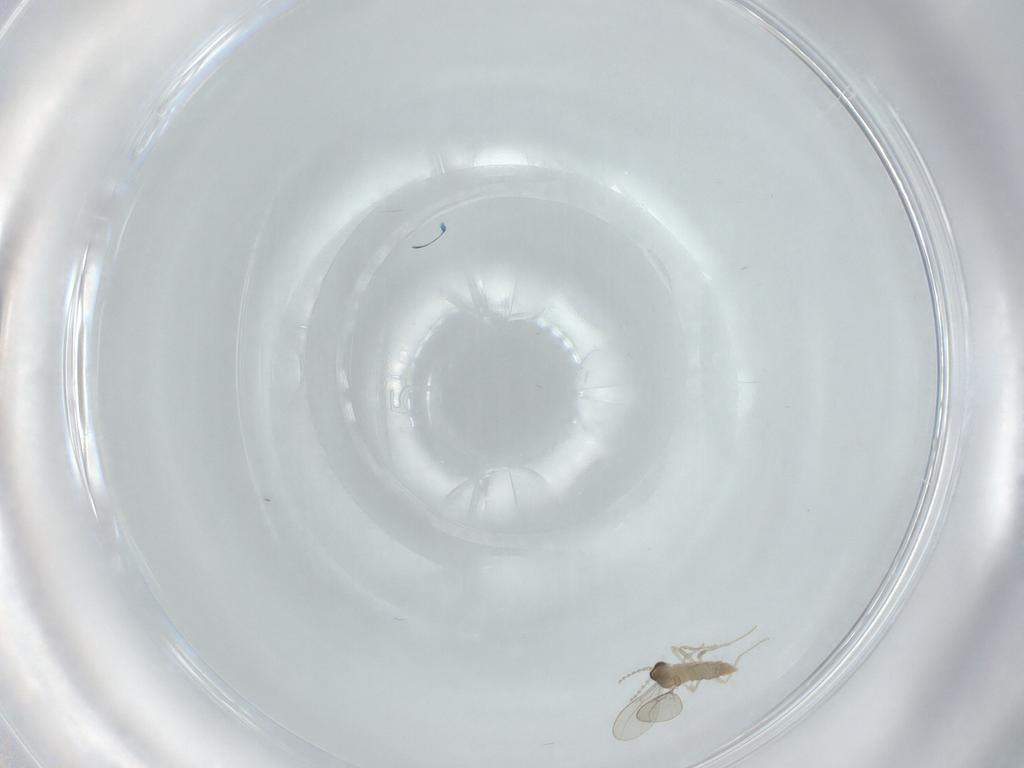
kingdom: Animalia
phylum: Arthropoda
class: Insecta
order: Diptera
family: Cecidomyiidae
